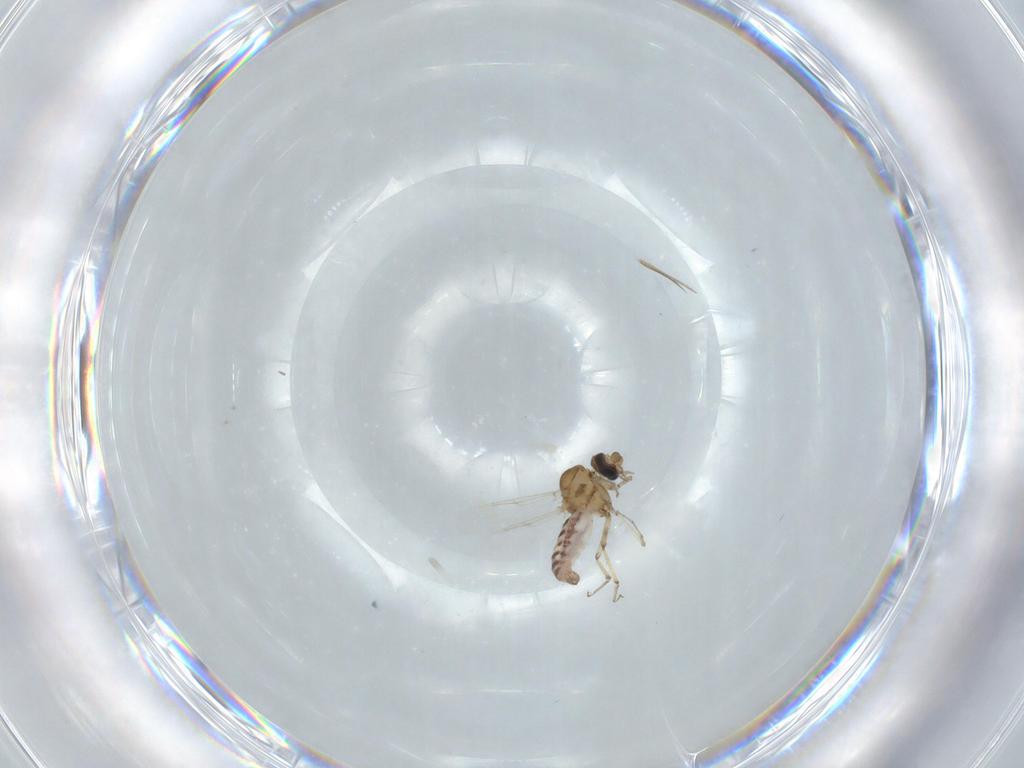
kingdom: Animalia
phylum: Arthropoda
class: Insecta
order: Diptera
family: Ceratopogonidae
